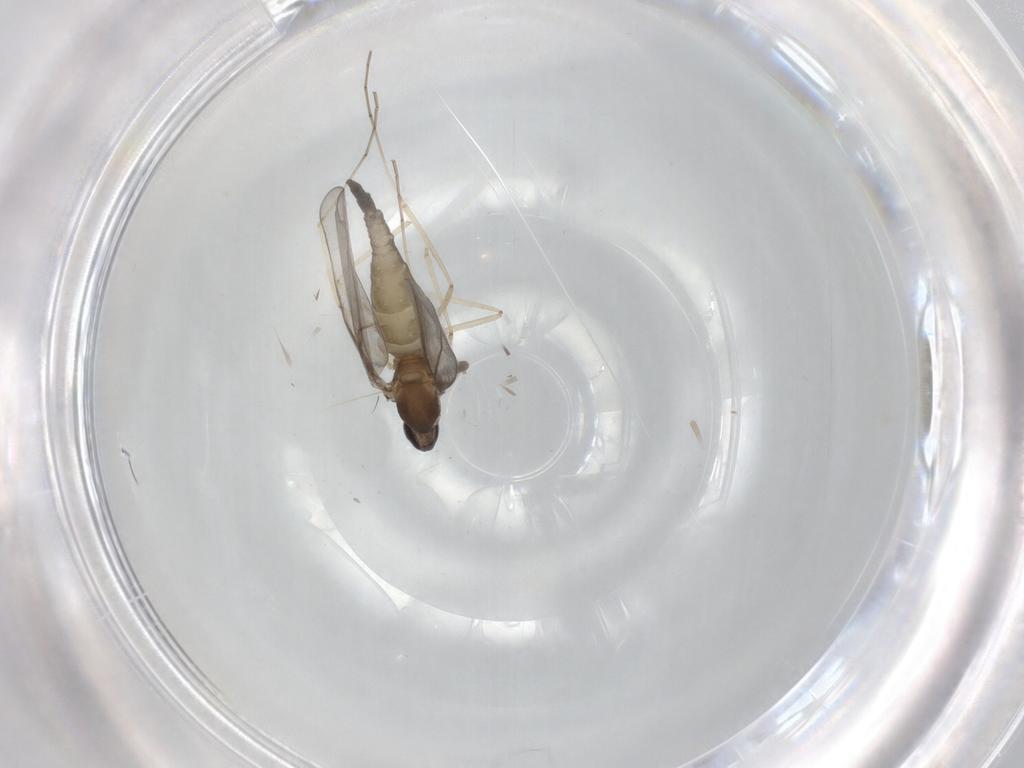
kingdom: Animalia
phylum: Arthropoda
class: Insecta
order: Diptera
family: Cecidomyiidae
